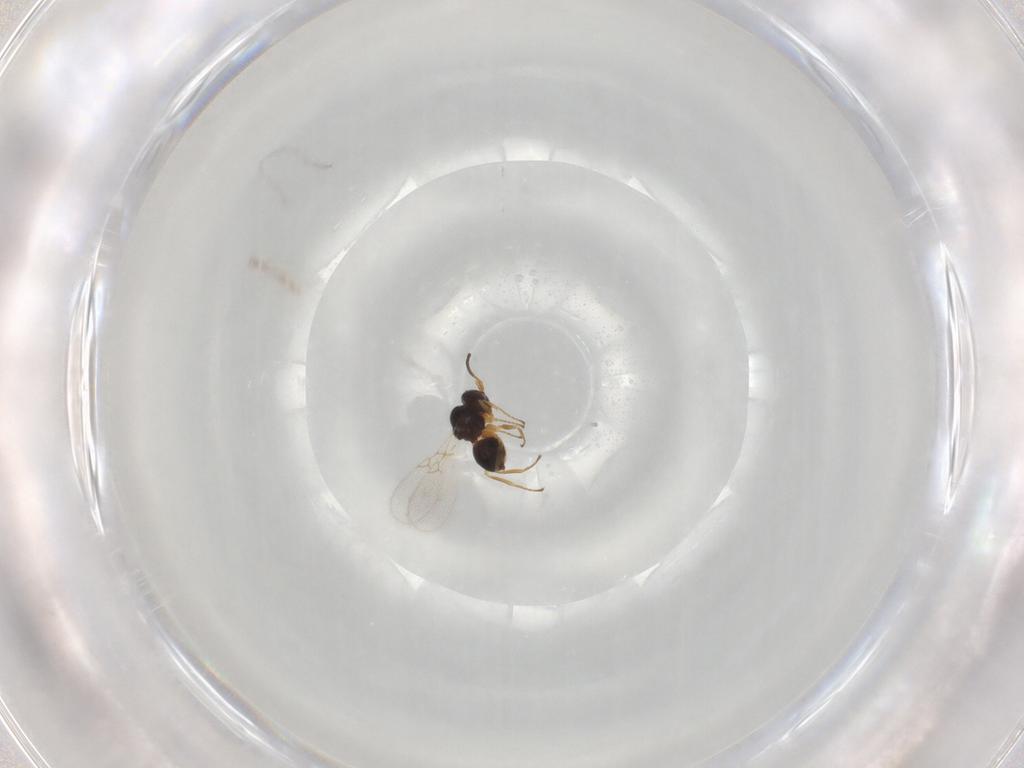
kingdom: Animalia
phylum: Arthropoda
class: Insecta
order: Hymenoptera
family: Figitidae
